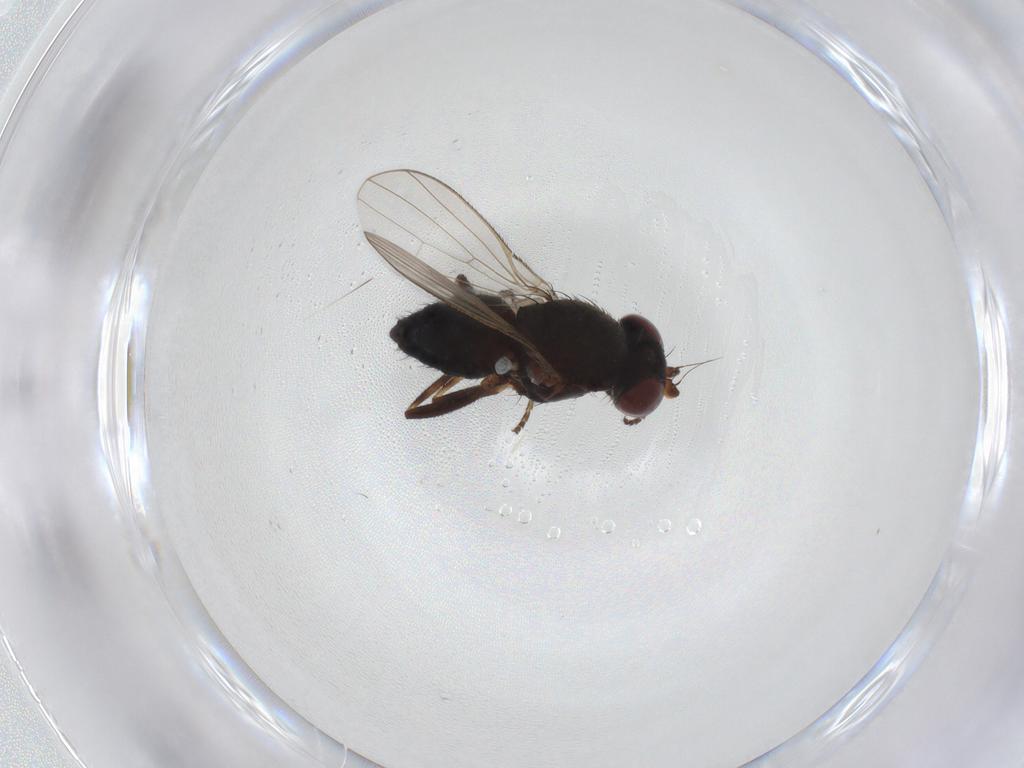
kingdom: Animalia
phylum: Arthropoda
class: Insecta
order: Diptera
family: Heleomyzidae
